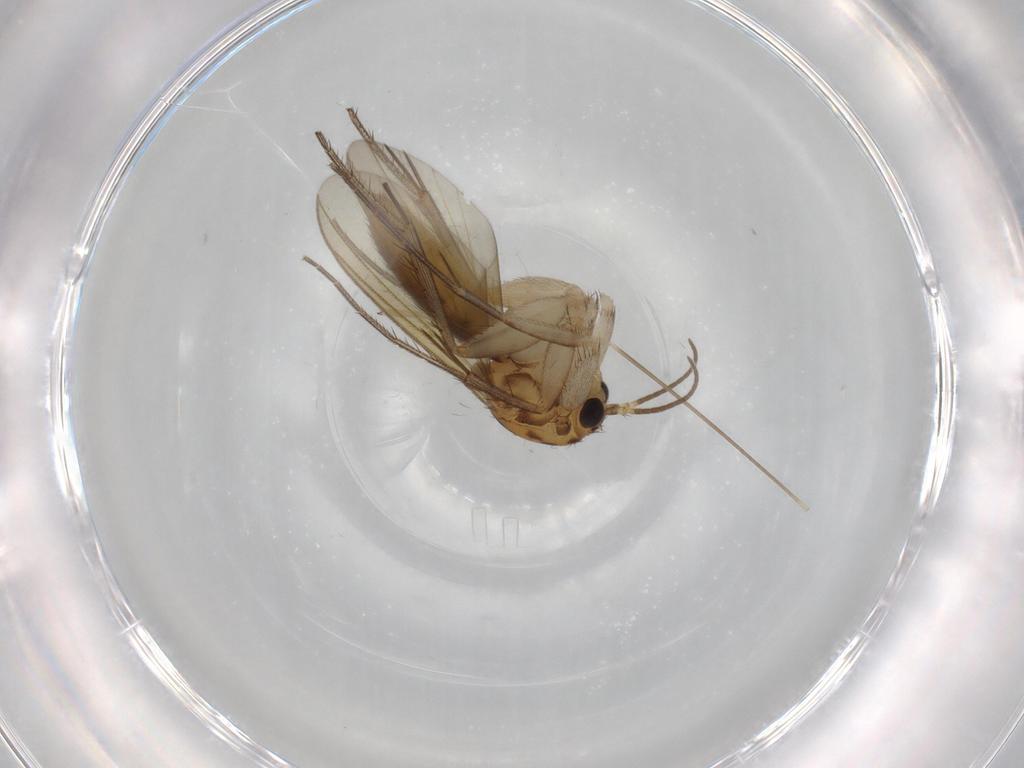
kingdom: Animalia
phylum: Arthropoda
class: Insecta
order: Diptera
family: Mycetophilidae
